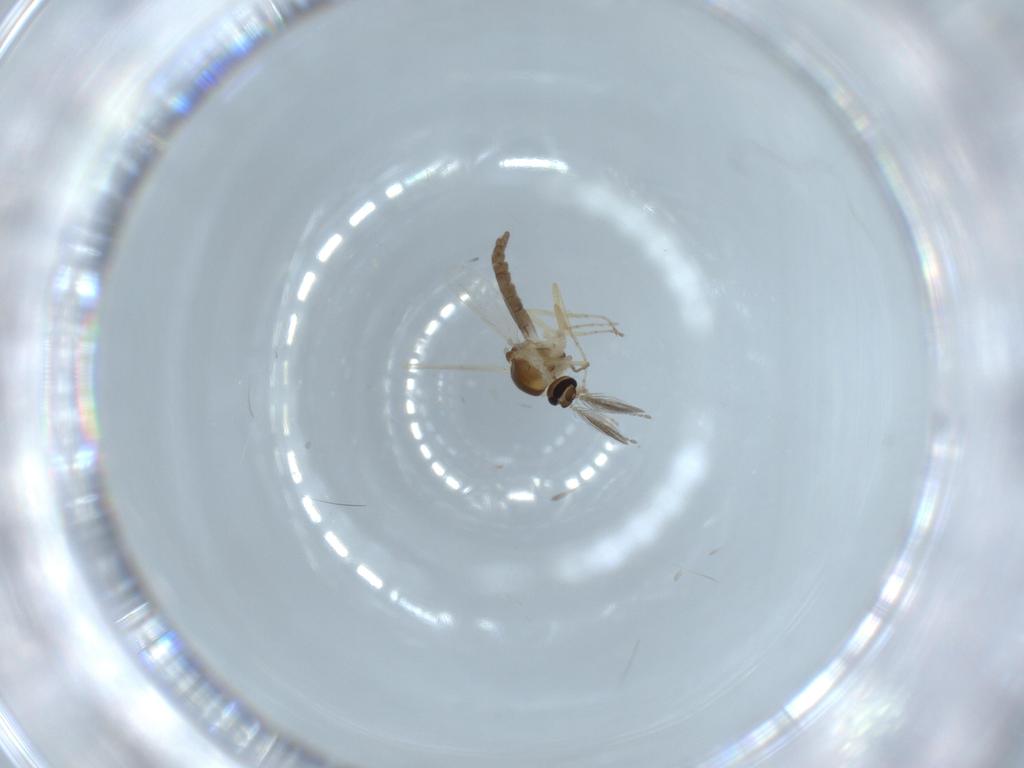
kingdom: Animalia
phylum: Arthropoda
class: Insecta
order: Diptera
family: Ceratopogonidae
